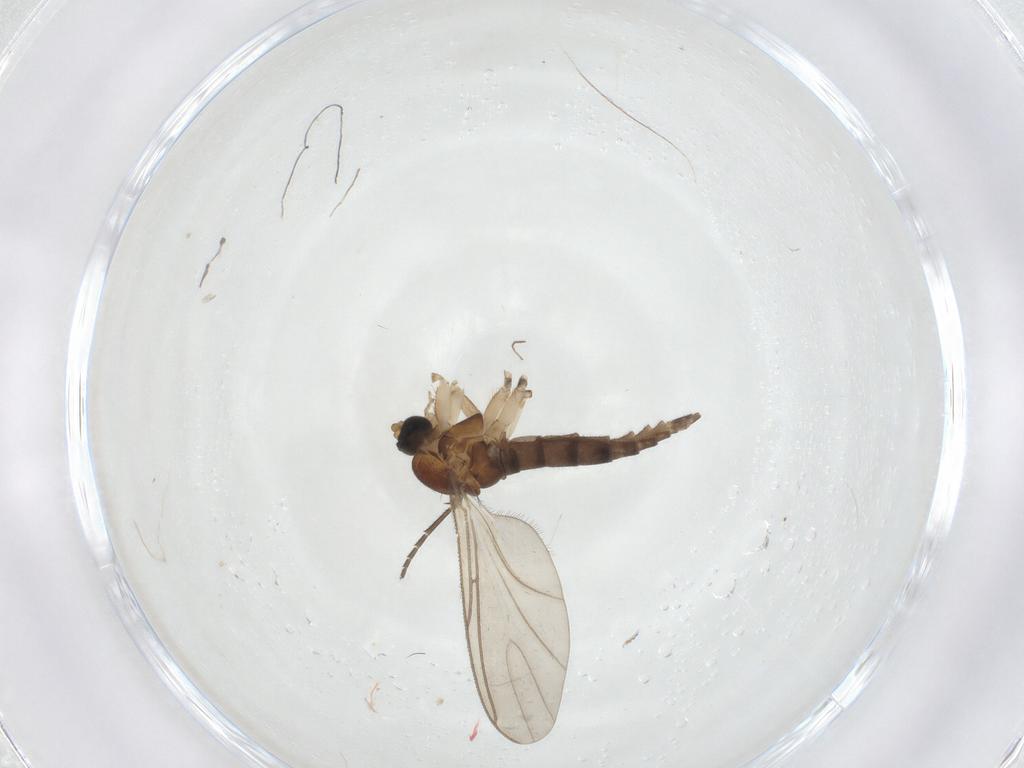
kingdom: Animalia
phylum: Arthropoda
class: Insecta
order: Diptera
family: Sciaridae
